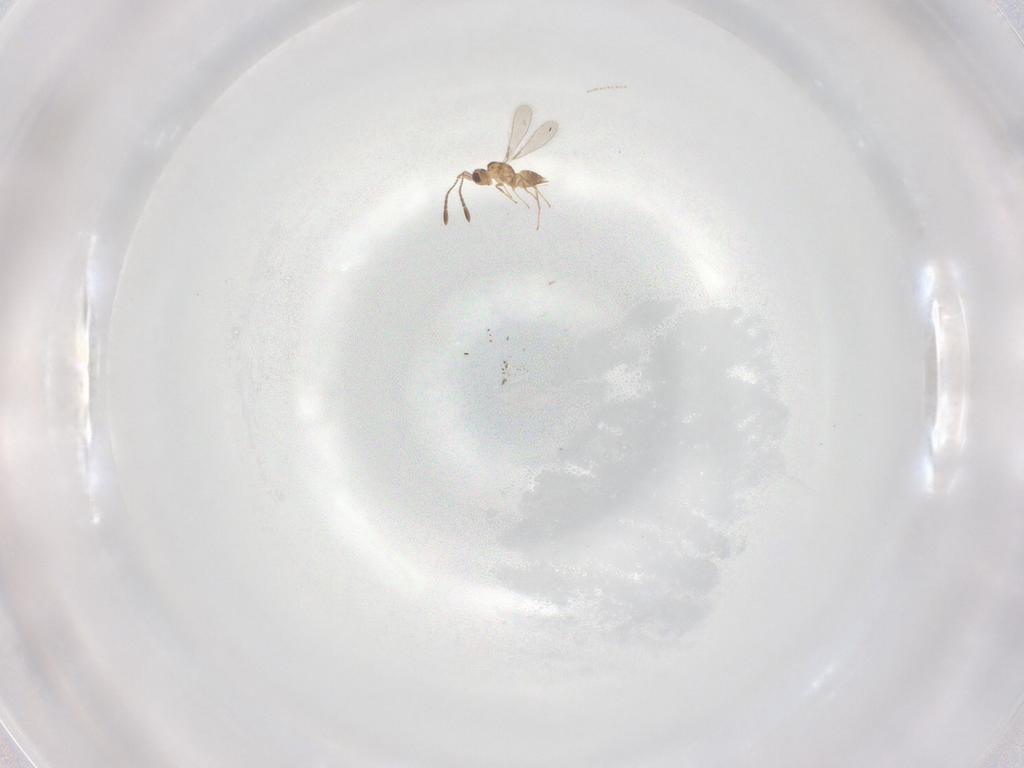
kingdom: Animalia
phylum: Arthropoda
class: Insecta
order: Hymenoptera
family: Mymaridae
